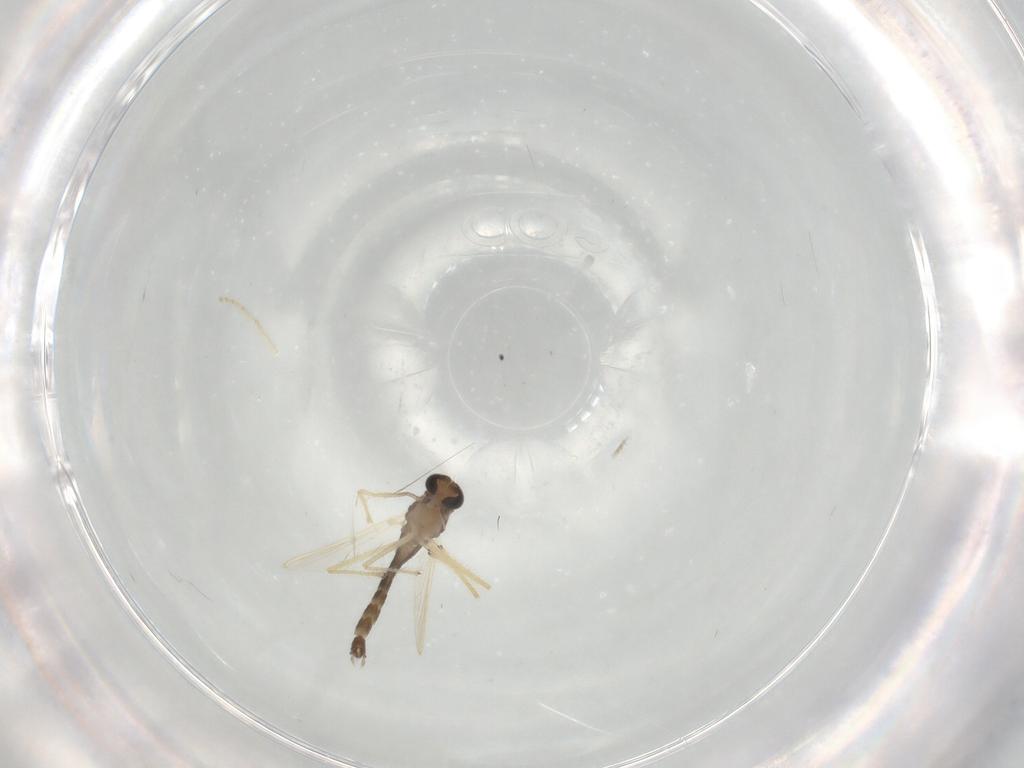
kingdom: Animalia
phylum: Arthropoda
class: Insecta
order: Diptera
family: Chironomidae
